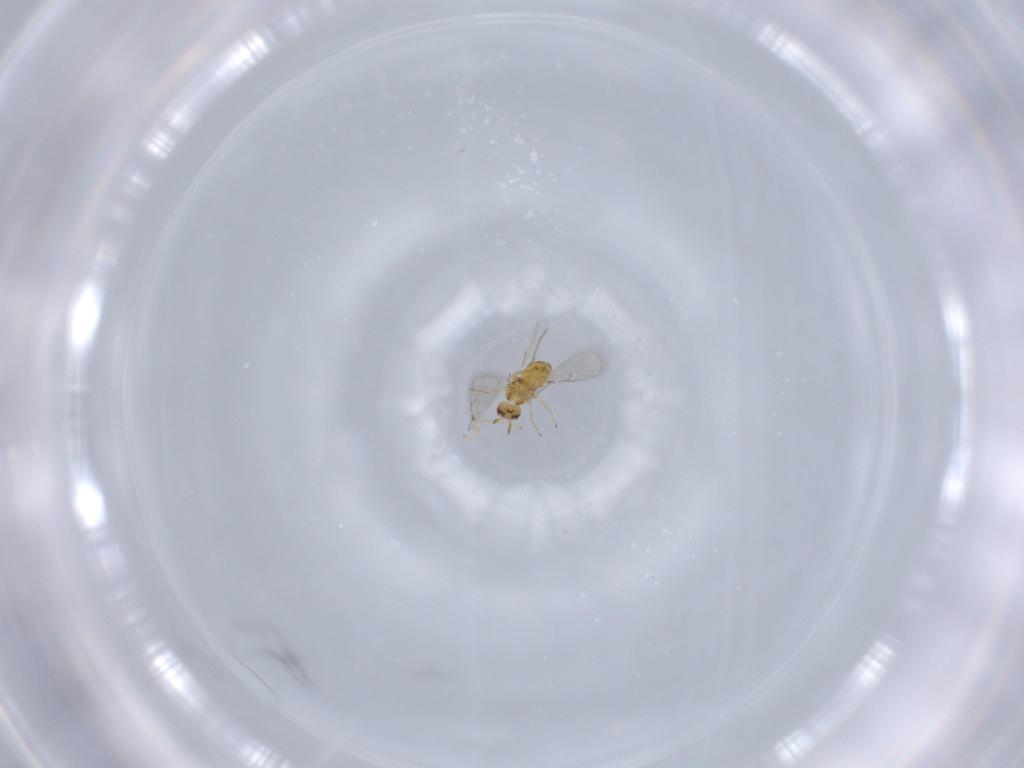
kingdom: Animalia
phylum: Arthropoda
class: Insecta
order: Hymenoptera
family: Trichogrammatidae
